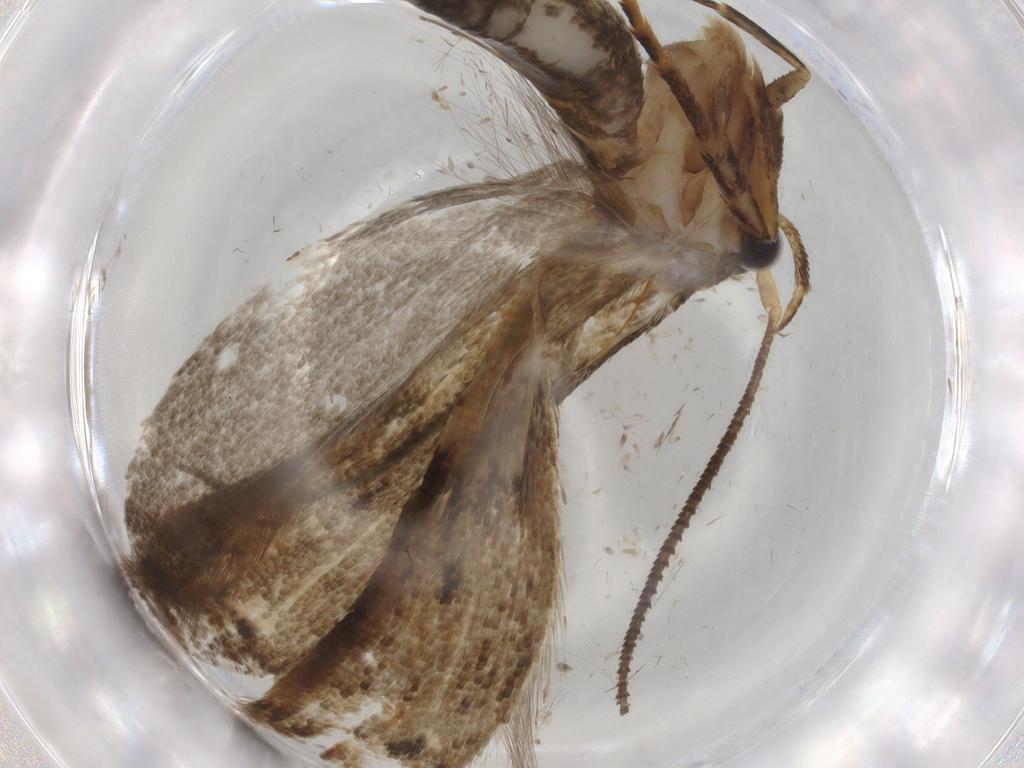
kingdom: Animalia
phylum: Arthropoda
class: Insecta
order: Lepidoptera
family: Blastobasidae
